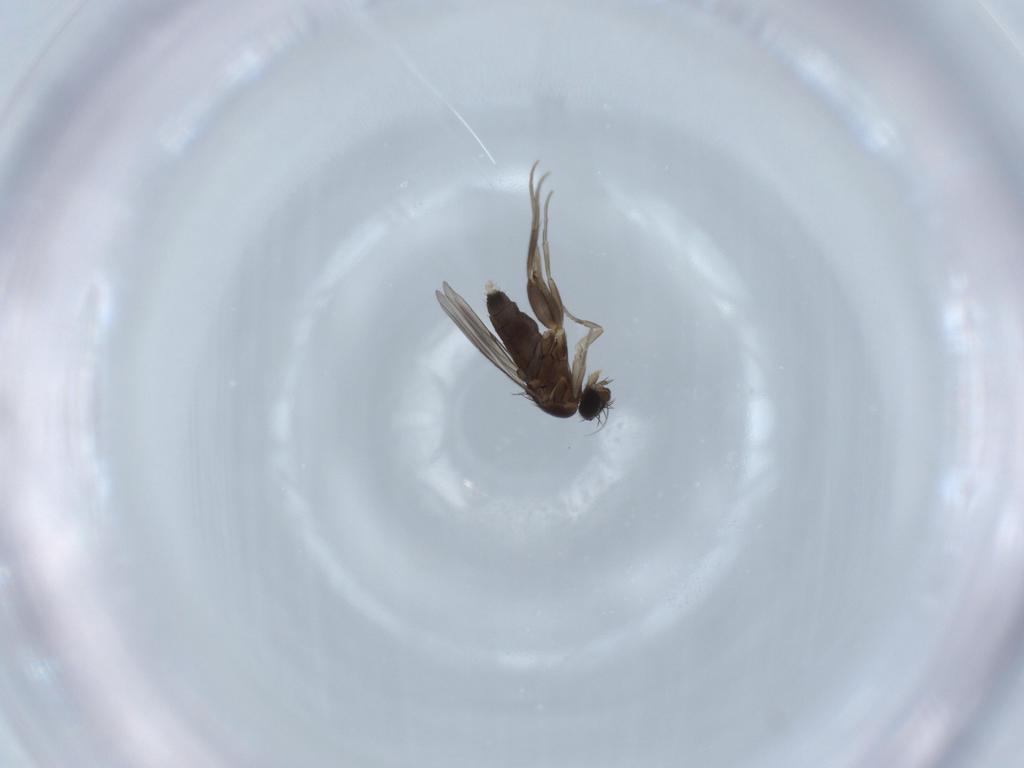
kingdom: Animalia
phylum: Arthropoda
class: Insecta
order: Diptera
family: Phoridae
